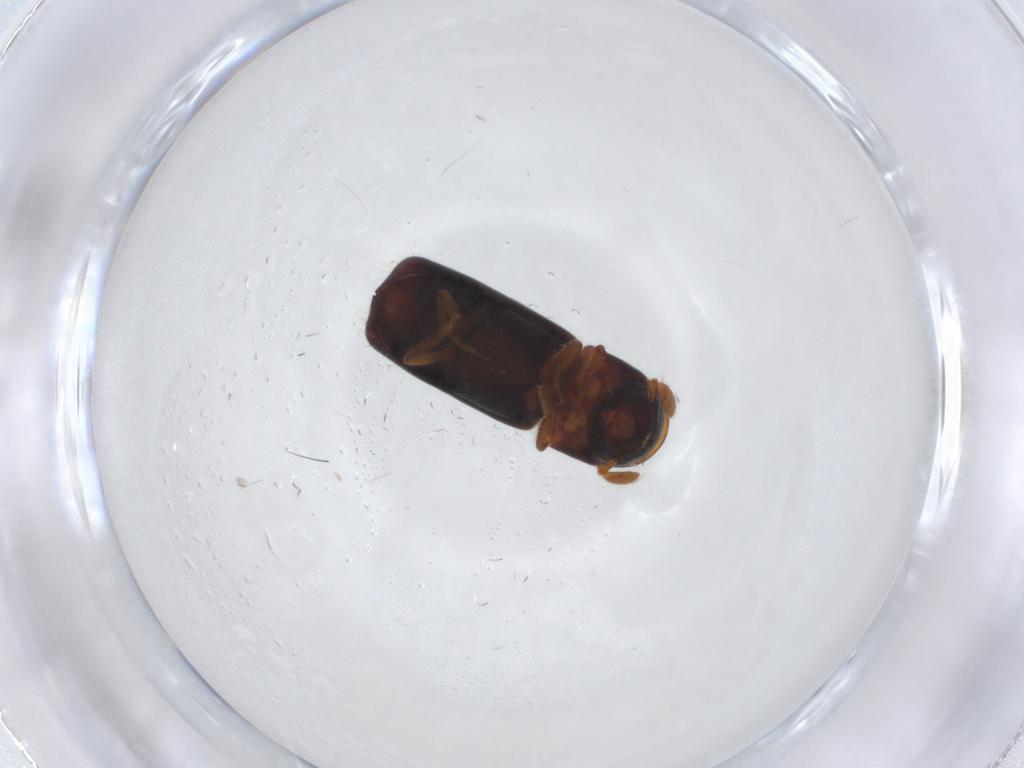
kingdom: Animalia
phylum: Arthropoda
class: Insecta
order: Coleoptera
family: Curculionidae
